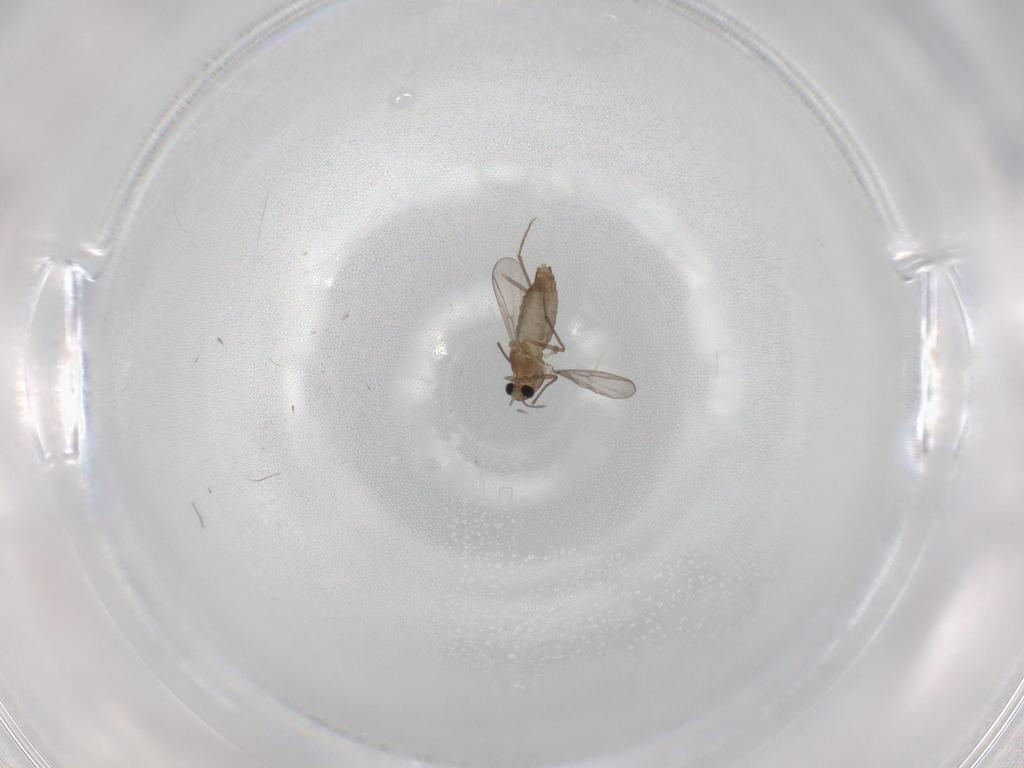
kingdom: Animalia
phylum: Arthropoda
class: Insecta
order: Diptera
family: Chironomidae
